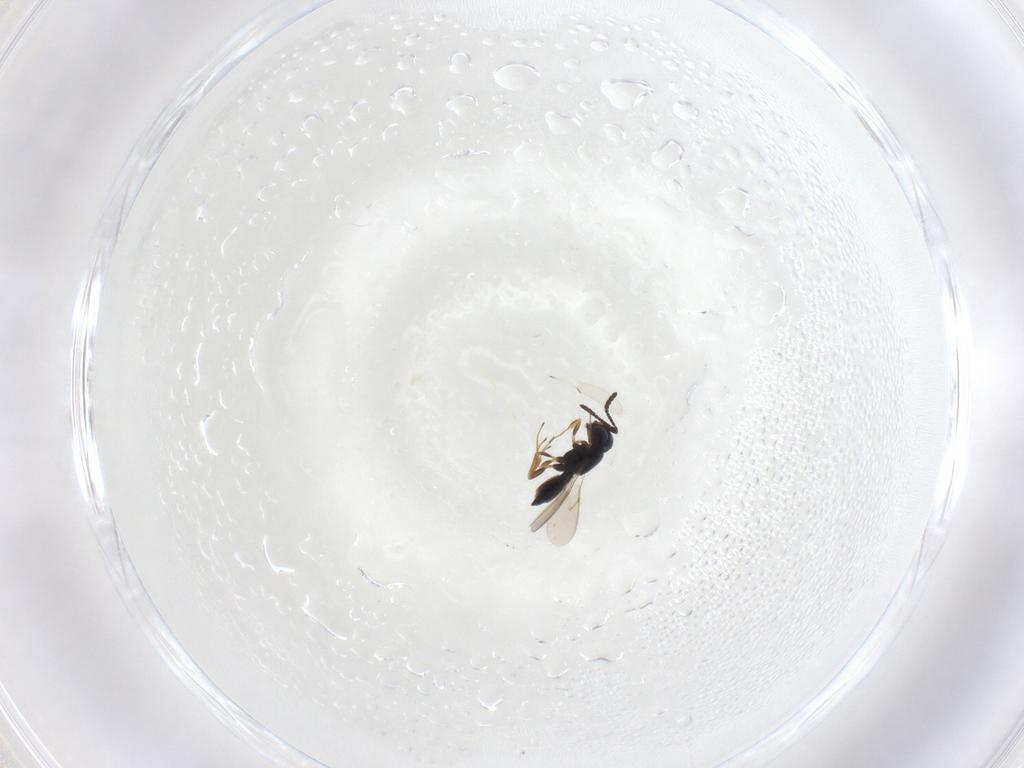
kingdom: Animalia
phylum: Arthropoda
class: Insecta
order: Hymenoptera
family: Scelionidae
